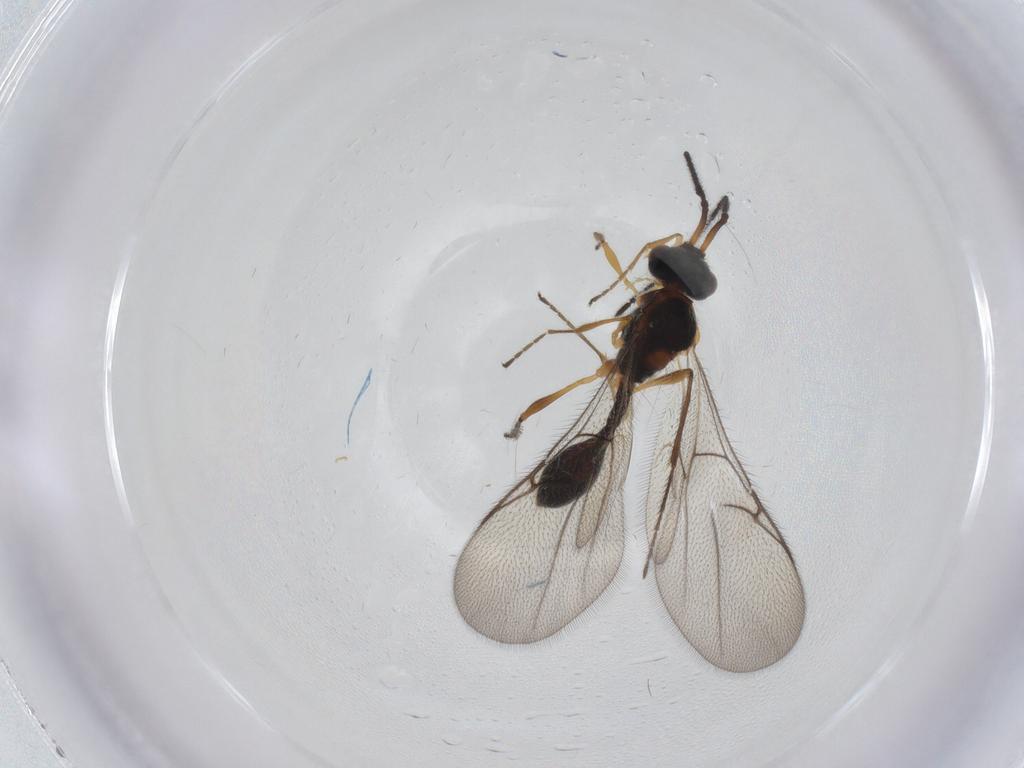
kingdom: Animalia
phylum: Arthropoda
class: Insecta
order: Hymenoptera
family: Diapriidae
